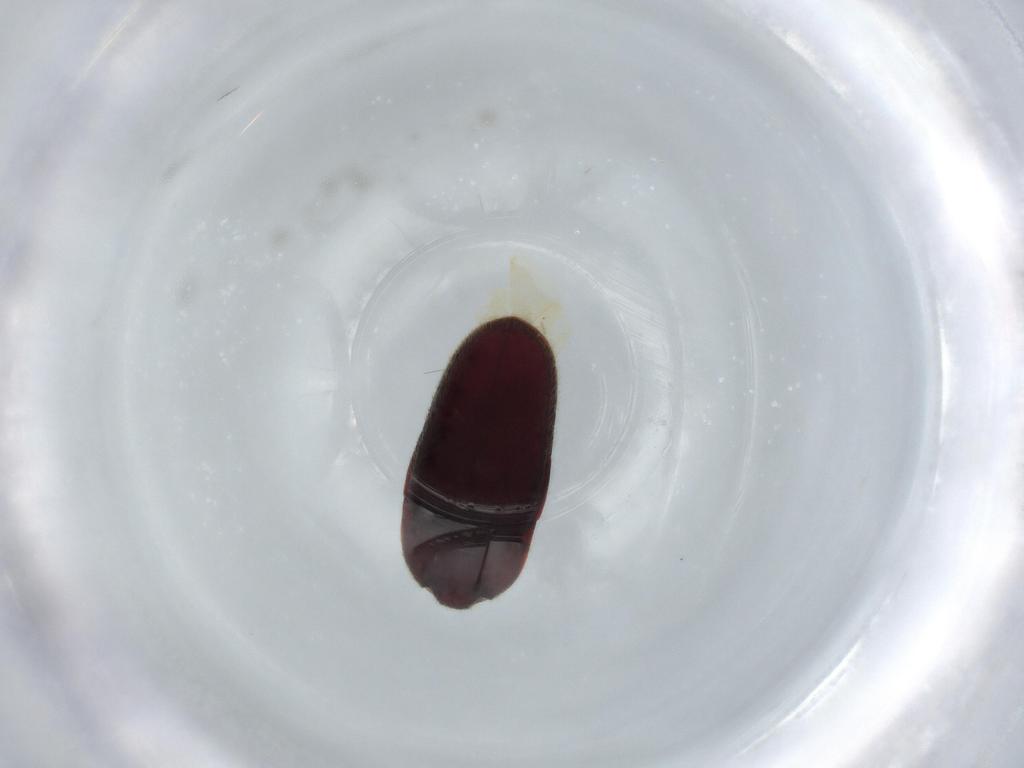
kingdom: Animalia
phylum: Arthropoda
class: Insecta
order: Coleoptera
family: Throscidae
